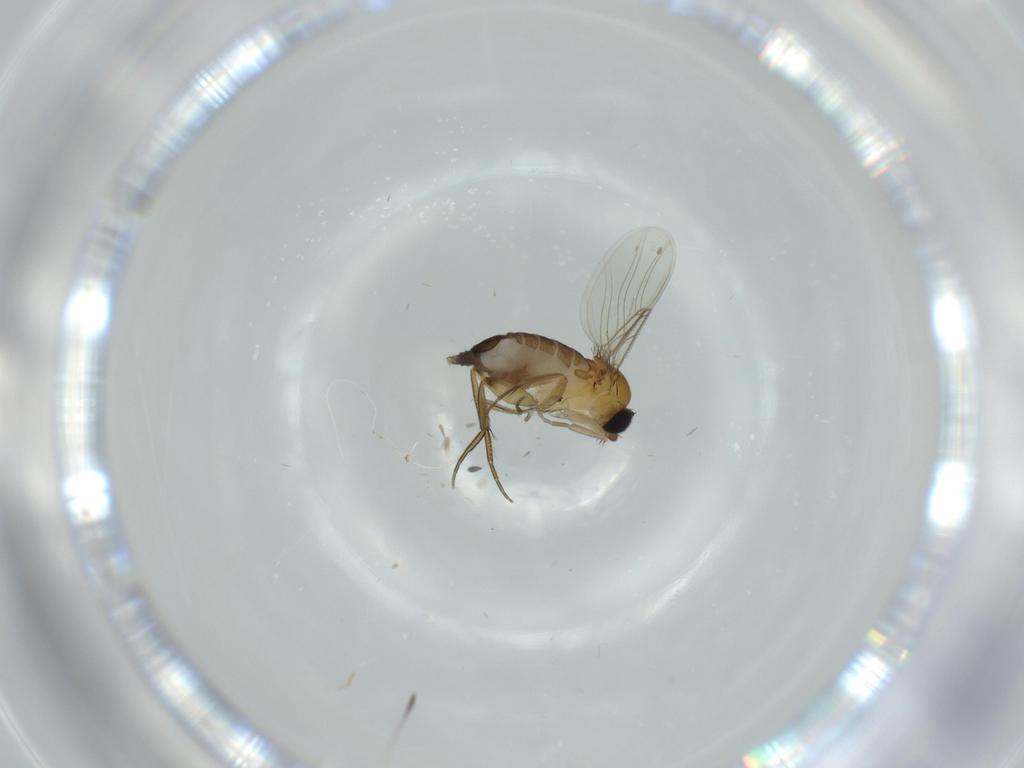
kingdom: Animalia
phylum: Arthropoda
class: Insecta
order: Diptera
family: Phoridae
